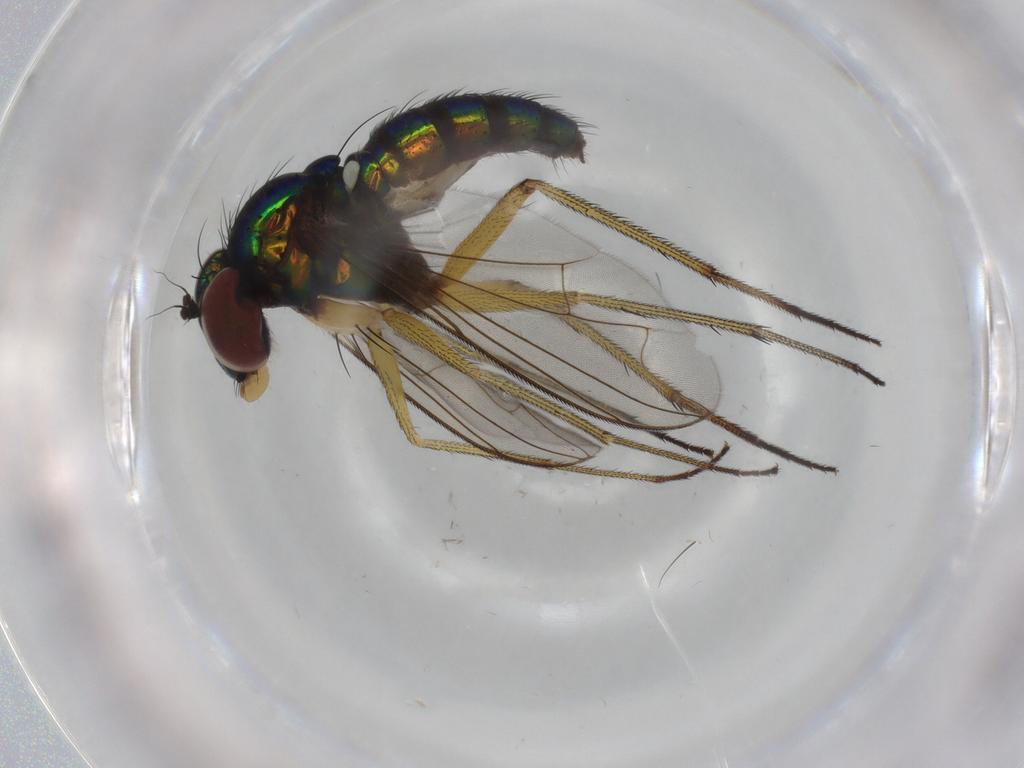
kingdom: Animalia
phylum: Arthropoda
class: Insecta
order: Diptera
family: Dolichopodidae
